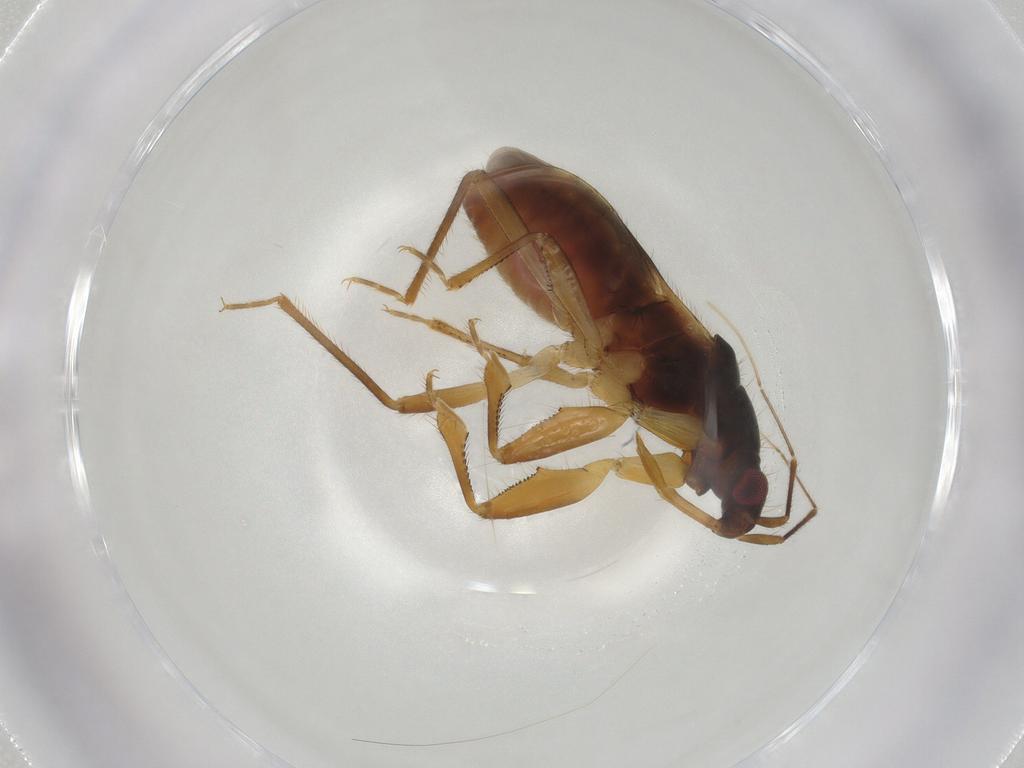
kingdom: Animalia
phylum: Arthropoda
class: Insecta
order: Hemiptera
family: Nabidae
